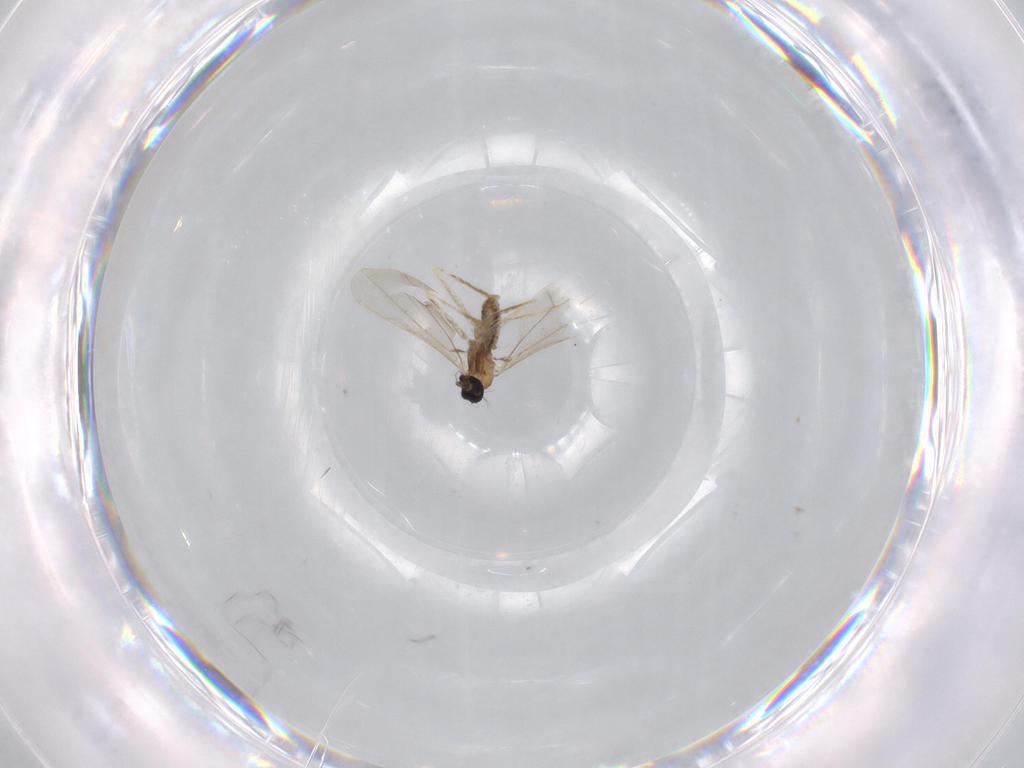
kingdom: Animalia
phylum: Arthropoda
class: Insecta
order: Diptera
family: Cecidomyiidae
